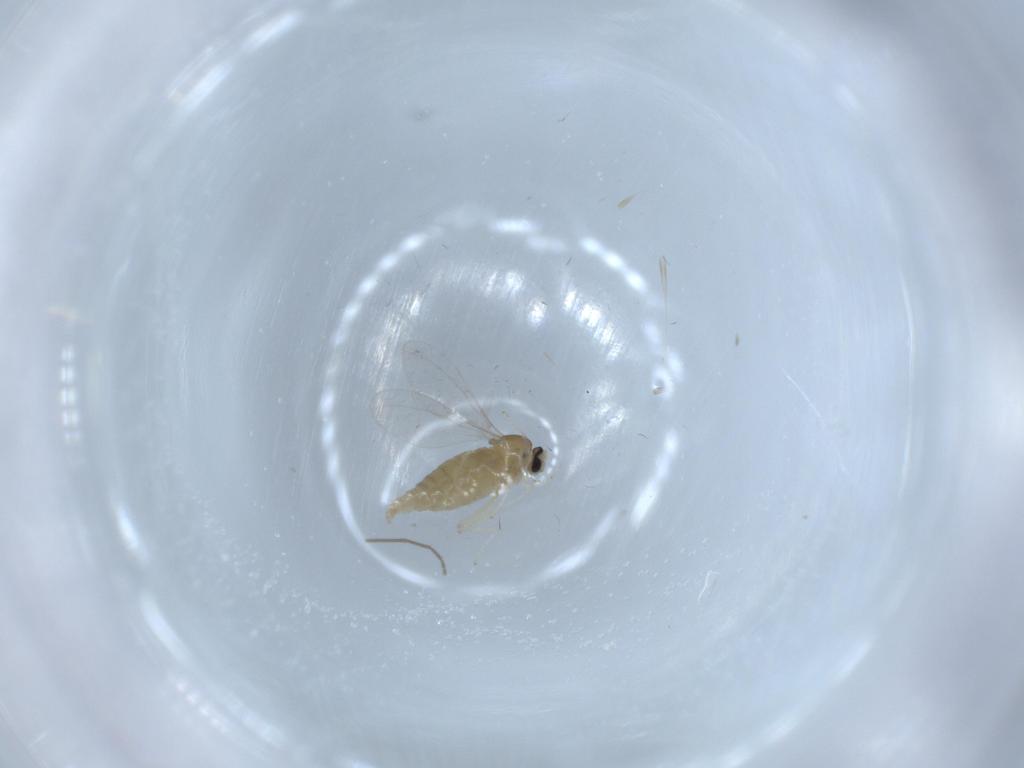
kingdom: Animalia
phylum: Arthropoda
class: Insecta
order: Diptera
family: Cecidomyiidae
